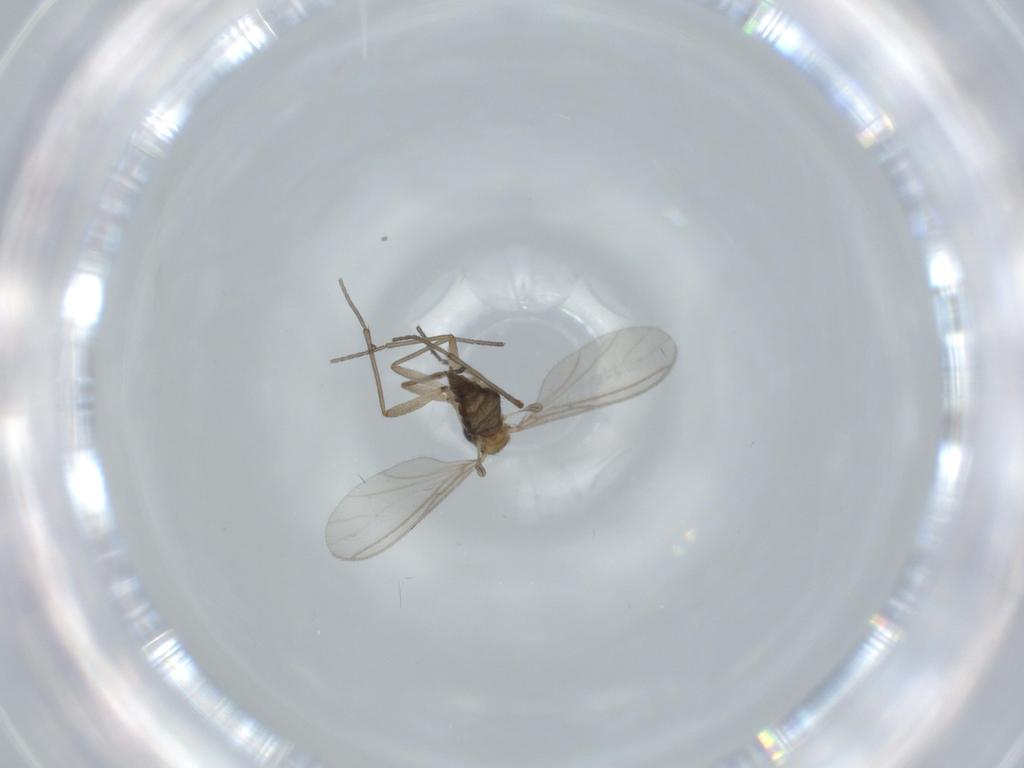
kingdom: Animalia
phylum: Arthropoda
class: Insecta
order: Diptera
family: Sciaridae
